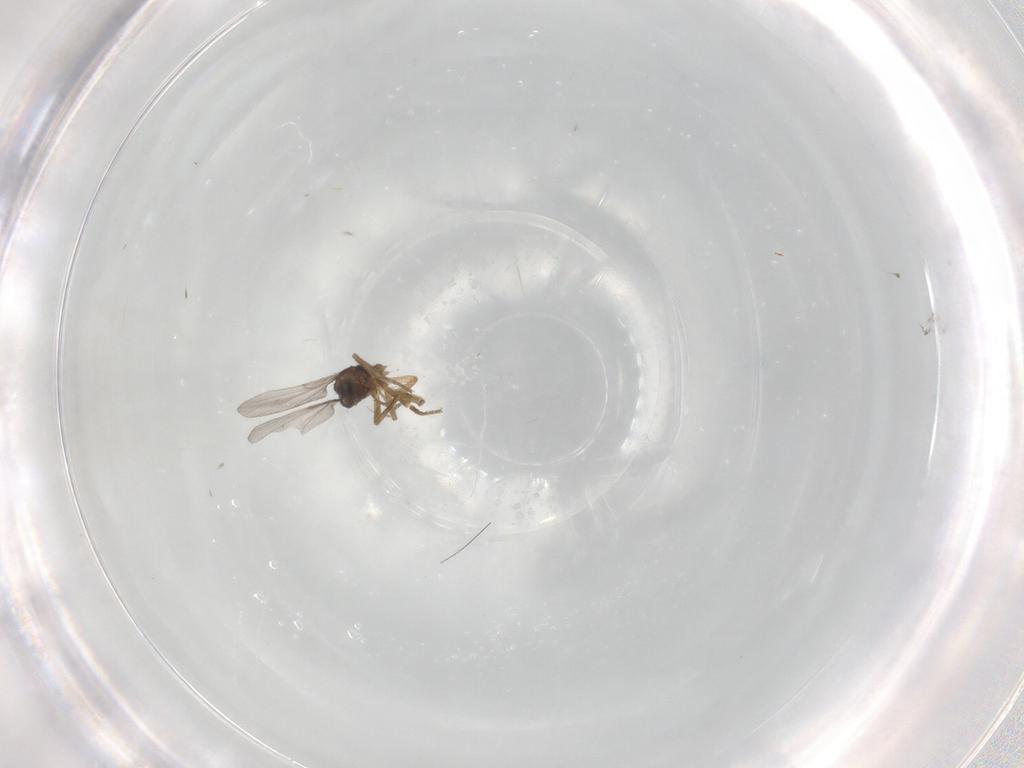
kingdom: Animalia
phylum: Arthropoda
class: Insecta
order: Diptera
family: Phoridae
